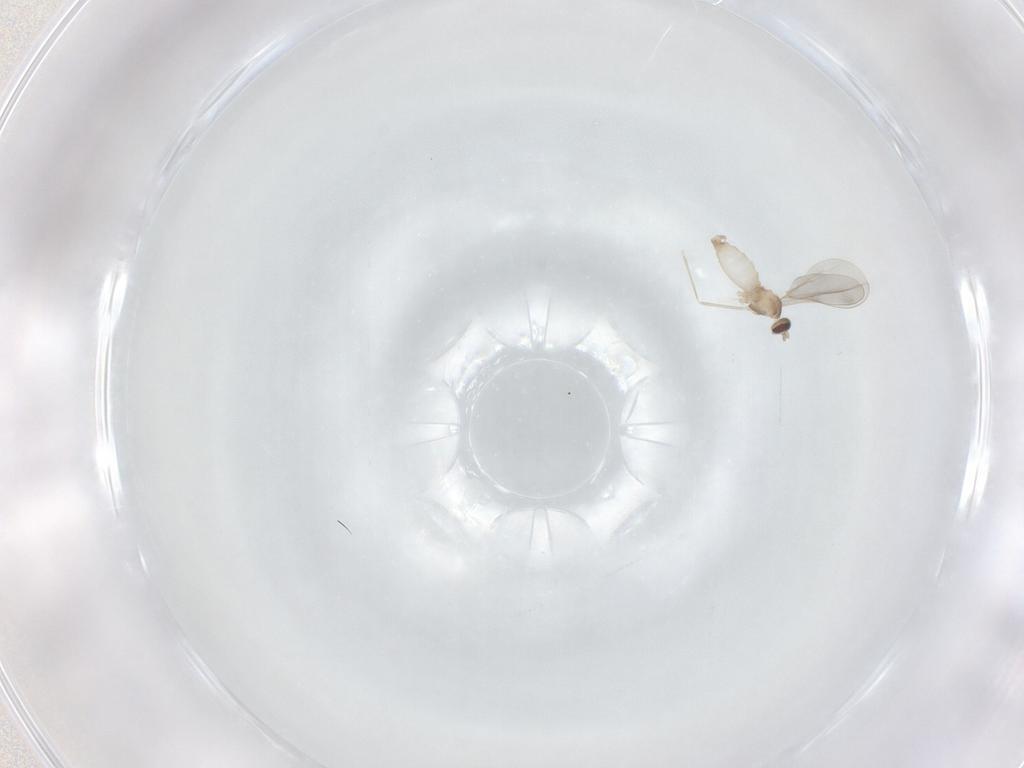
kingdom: Animalia
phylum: Arthropoda
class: Insecta
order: Diptera
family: Cecidomyiidae
